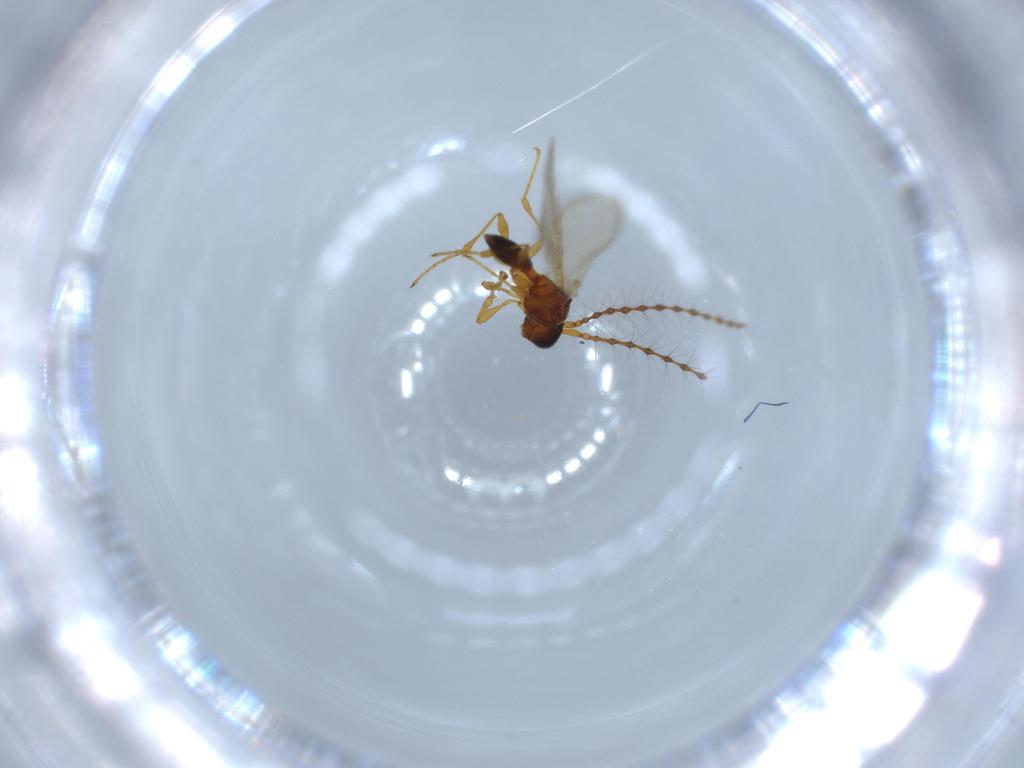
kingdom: Animalia
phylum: Arthropoda
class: Insecta
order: Hymenoptera
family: Diapriidae
